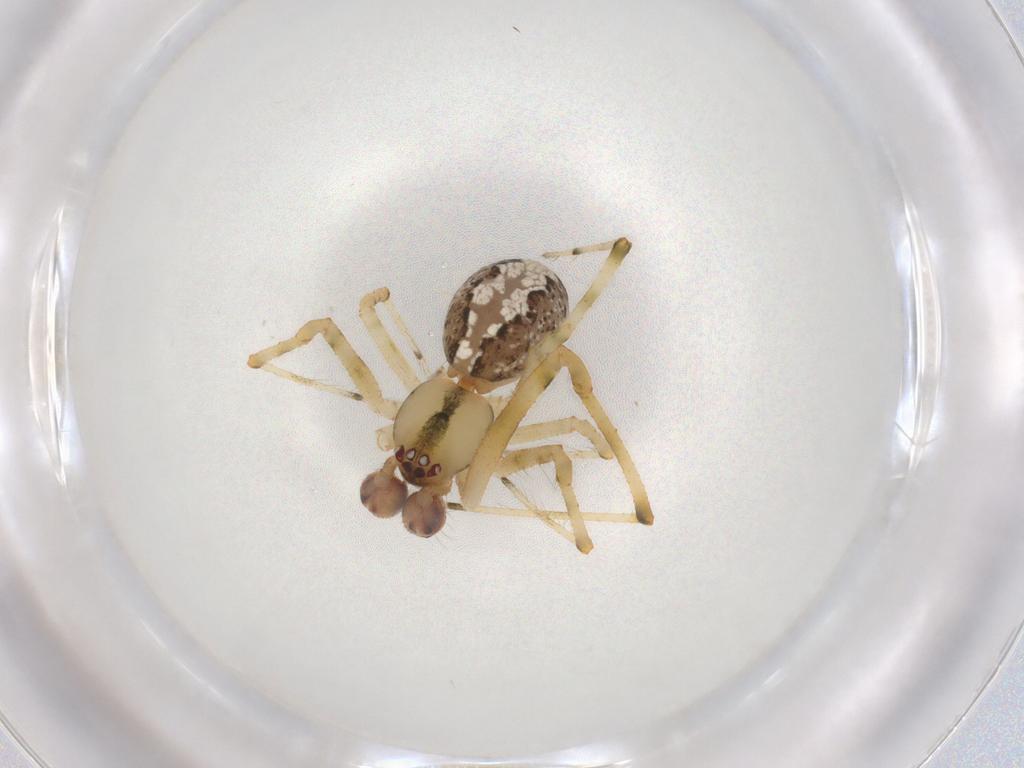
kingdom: Animalia
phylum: Arthropoda
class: Arachnida
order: Araneae
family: Theridiidae
